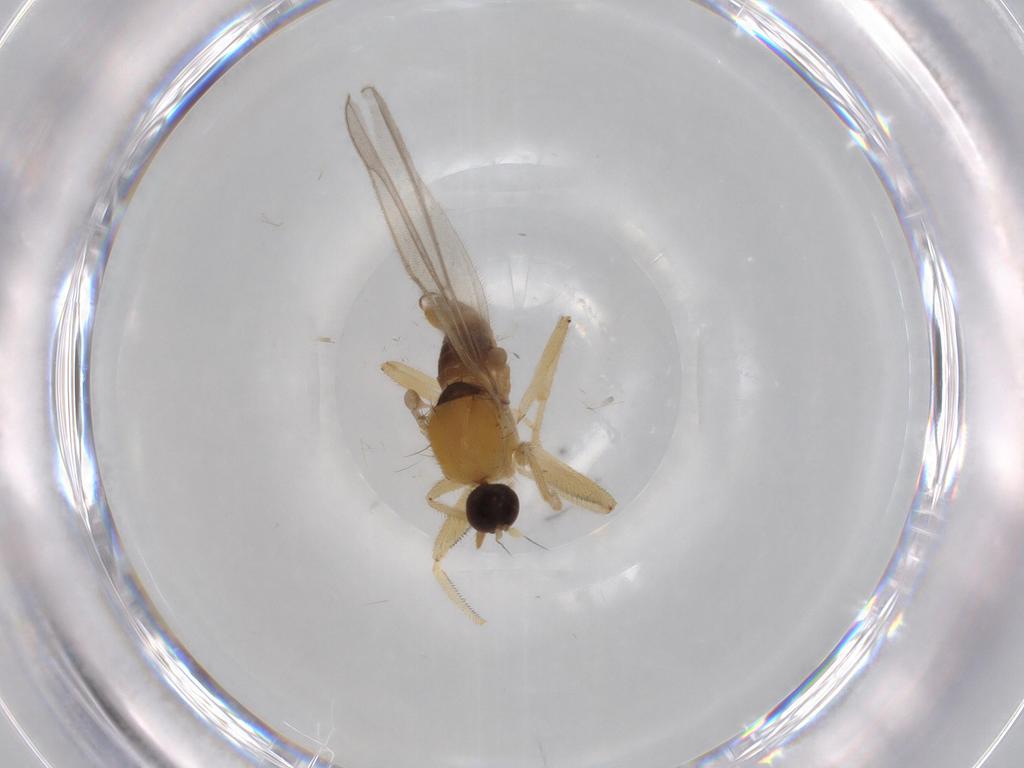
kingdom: Animalia
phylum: Arthropoda
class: Insecta
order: Diptera
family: Hybotidae
